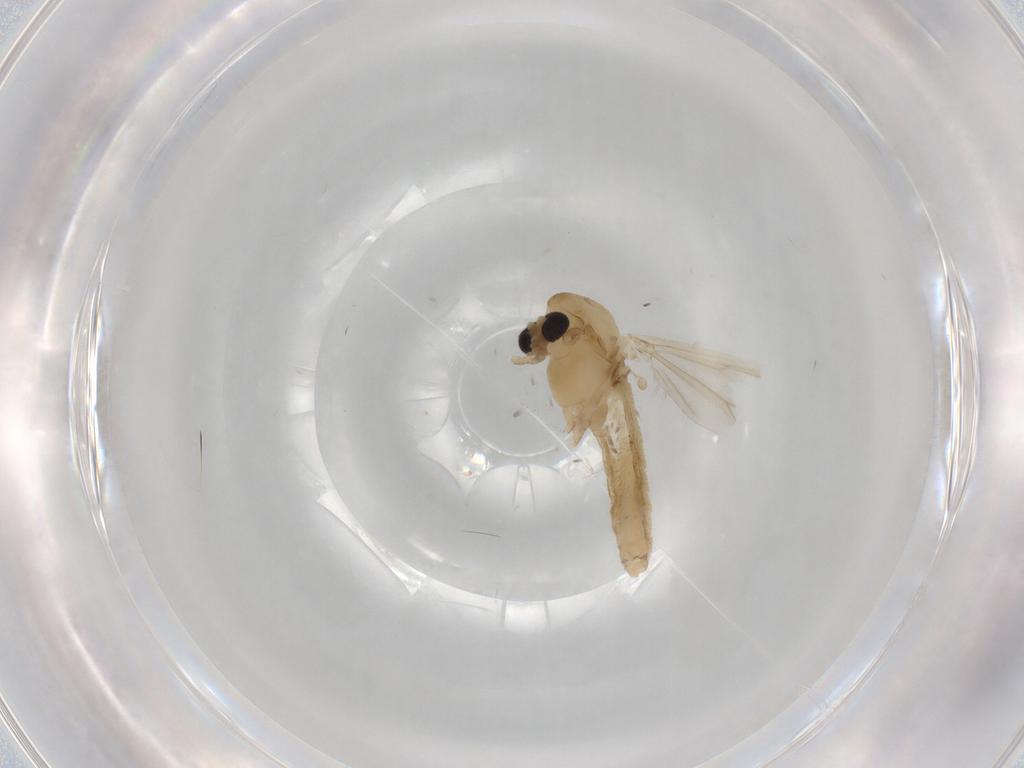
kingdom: Animalia
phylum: Arthropoda
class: Insecta
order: Diptera
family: Chironomidae
